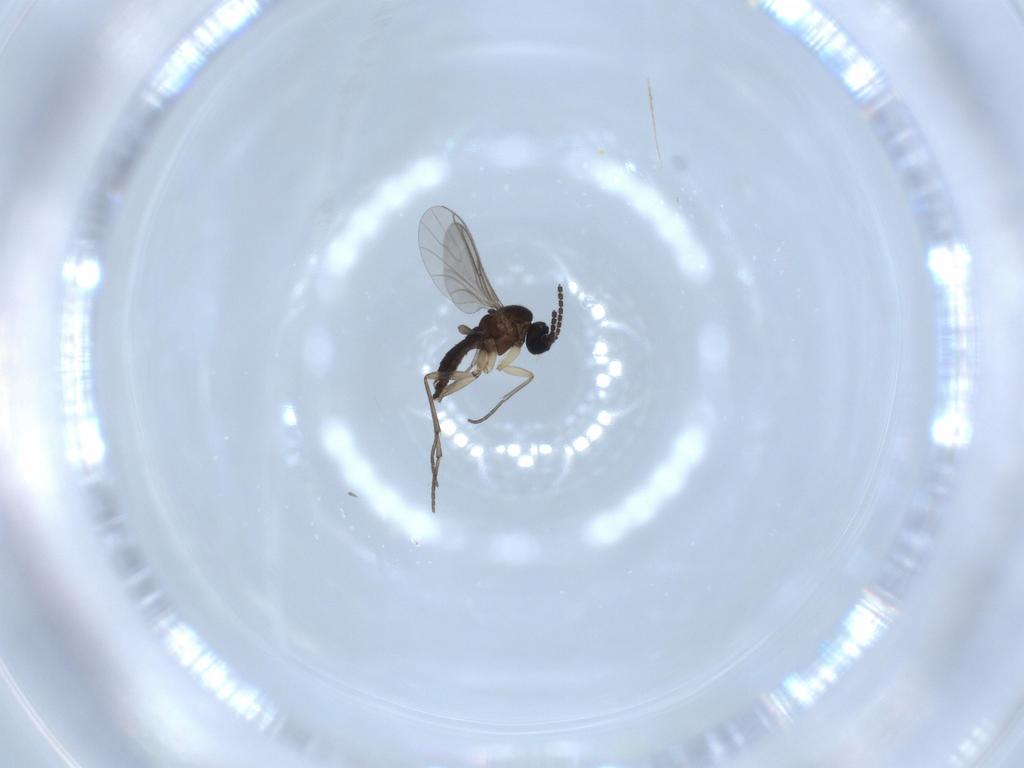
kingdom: Animalia
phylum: Arthropoda
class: Insecta
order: Diptera
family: Sciaridae
